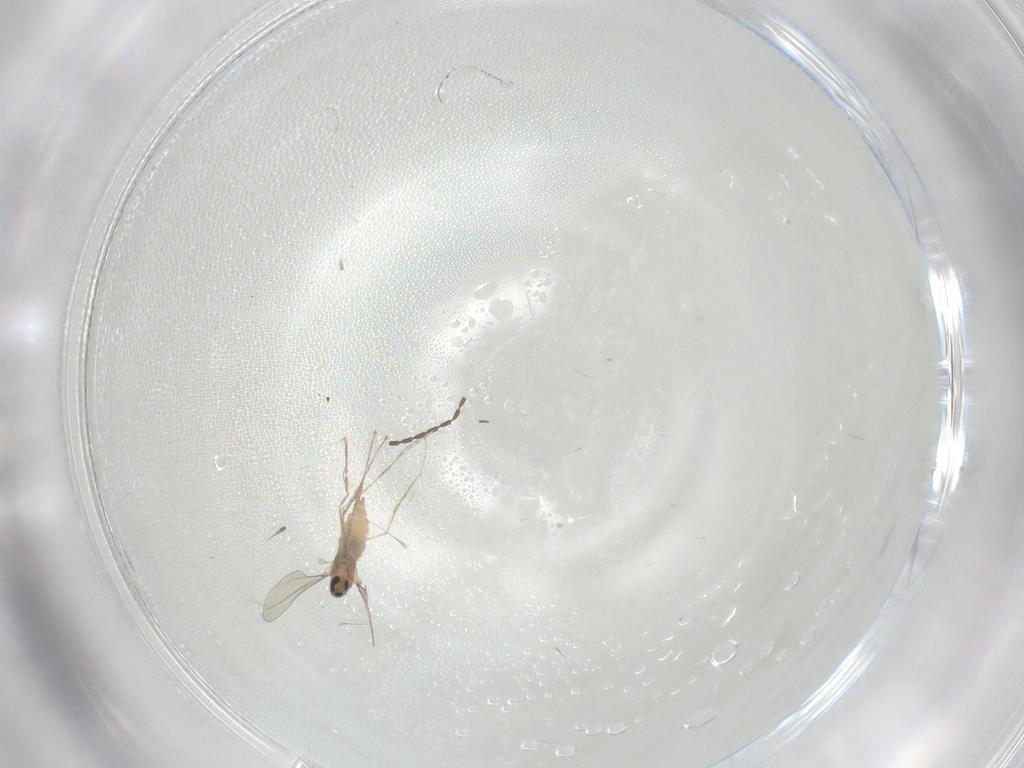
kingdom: Animalia
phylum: Arthropoda
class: Insecta
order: Diptera
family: Cecidomyiidae
